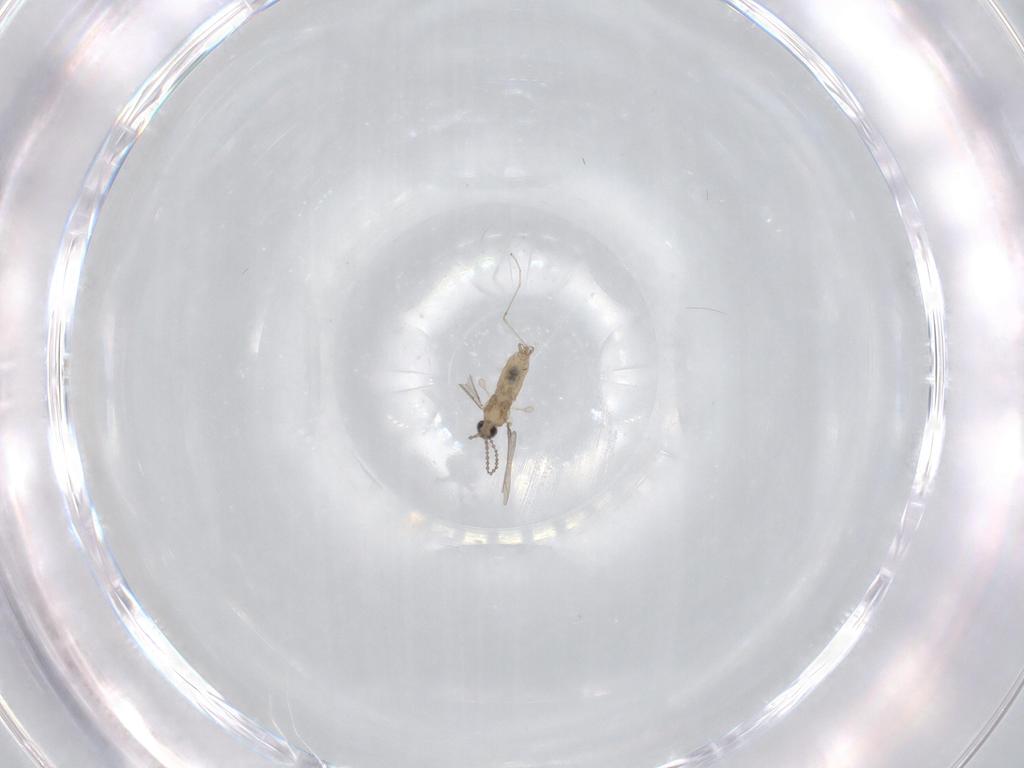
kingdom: Animalia
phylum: Arthropoda
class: Insecta
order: Diptera
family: Cecidomyiidae
